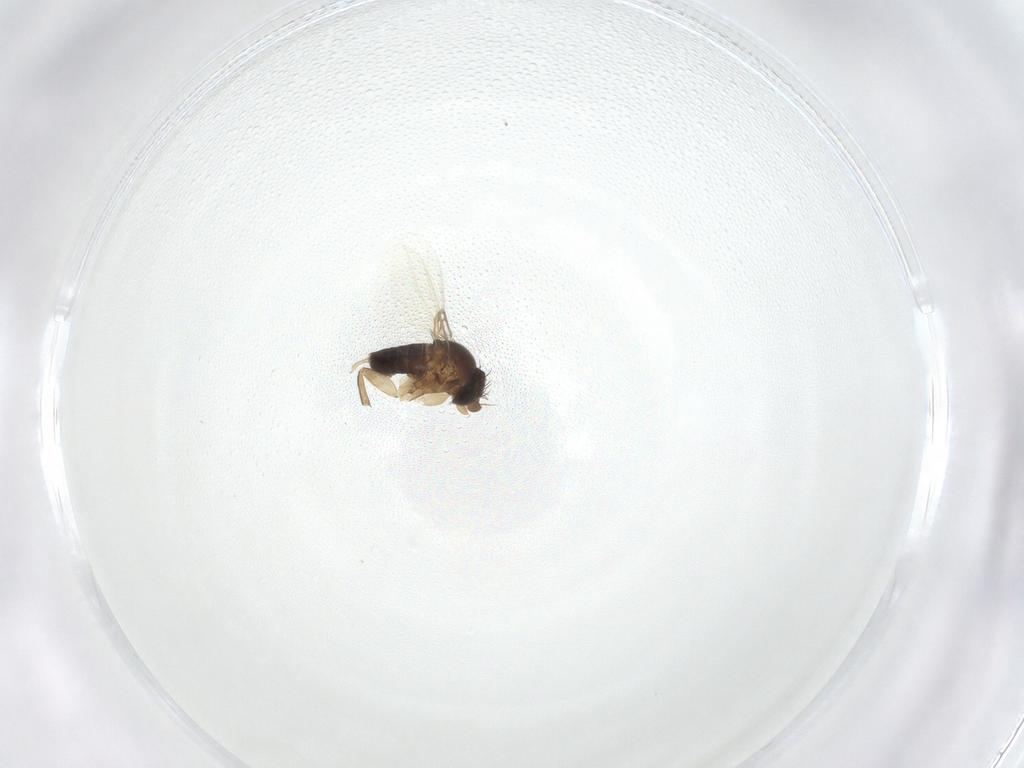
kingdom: Animalia
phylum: Arthropoda
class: Insecta
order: Diptera
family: Phoridae
